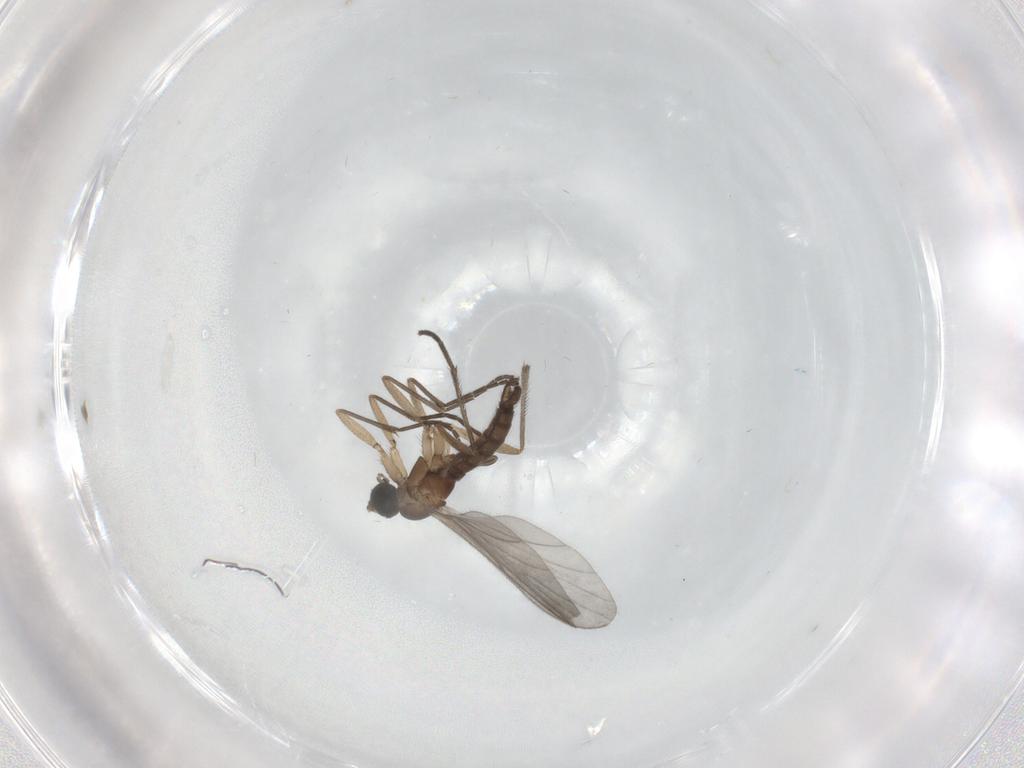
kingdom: Animalia
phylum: Arthropoda
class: Insecta
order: Diptera
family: Sciaridae
